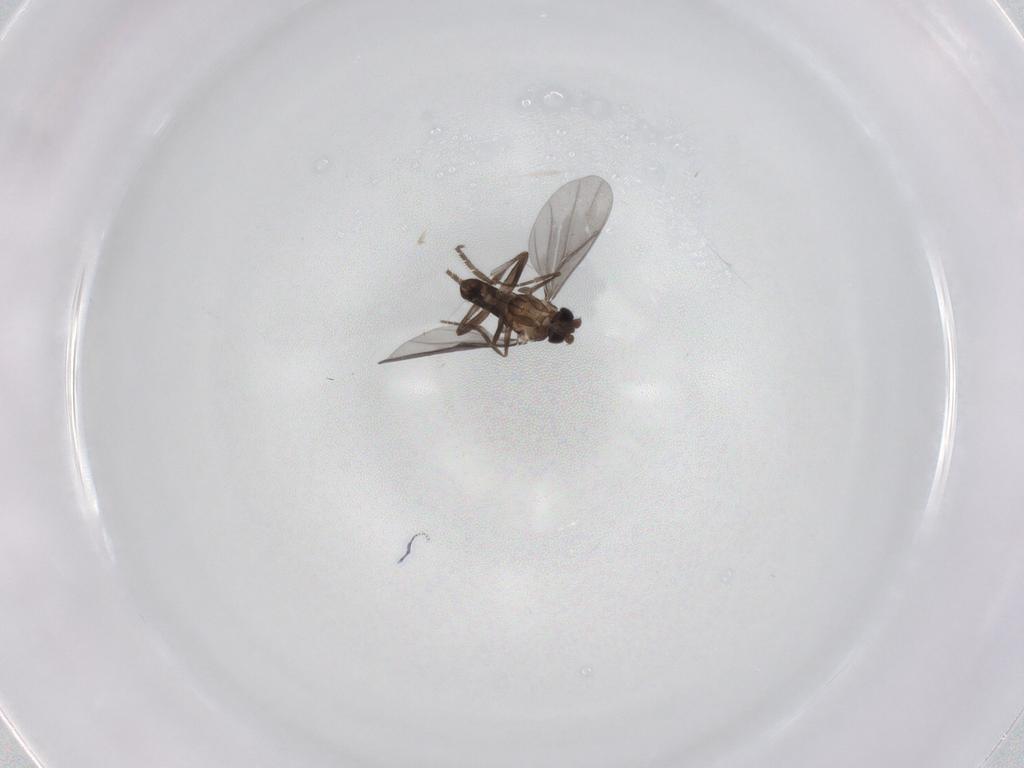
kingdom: Animalia
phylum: Arthropoda
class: Insecta
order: Diptera
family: Phoridae
